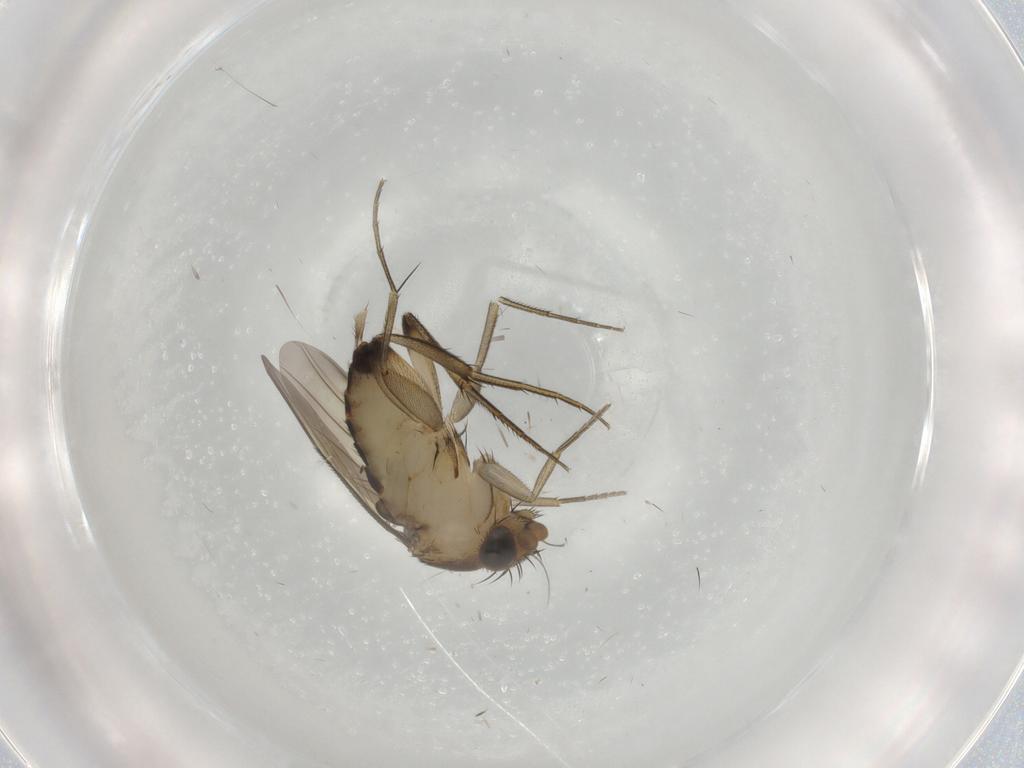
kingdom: Animalia
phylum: Arthropoda
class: Insecta
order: Diptera
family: Phoridae
